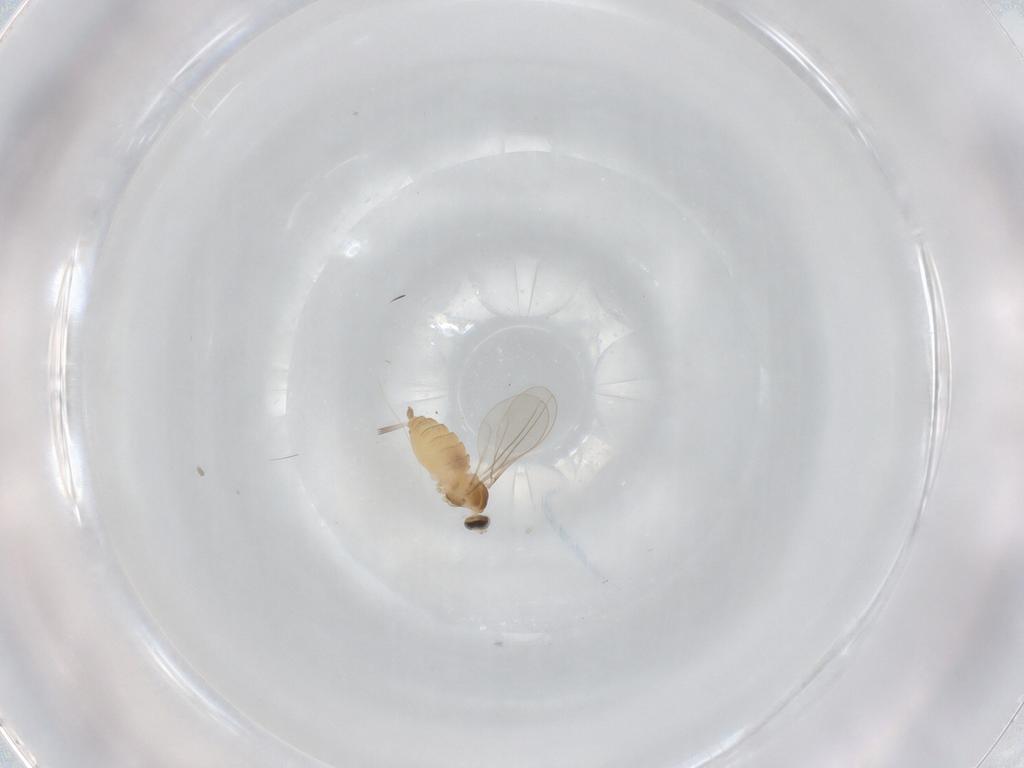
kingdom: Animalia
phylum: Arthropoda
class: Insecta
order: Diptera
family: Cecidomyiidae
